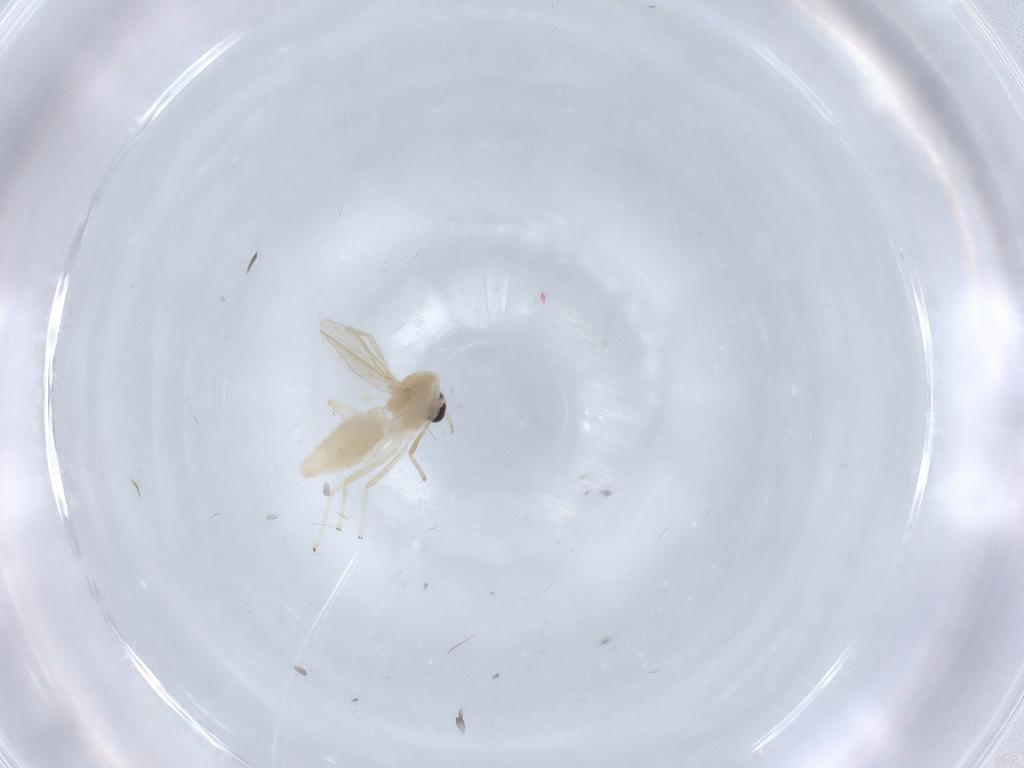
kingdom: Animalia
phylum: Arthropoda
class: Insecta
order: Diptera
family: Chironomidae
